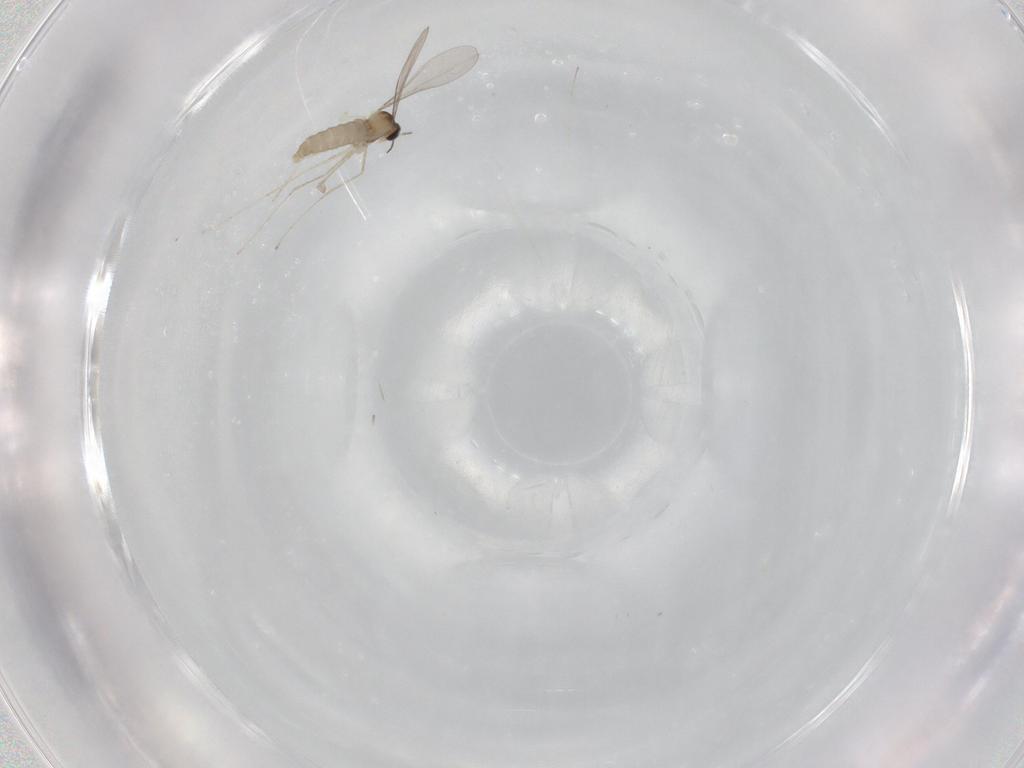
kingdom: Animalia
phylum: Arthropoda
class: Insecta
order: Diptera
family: Cecidomyiidae
